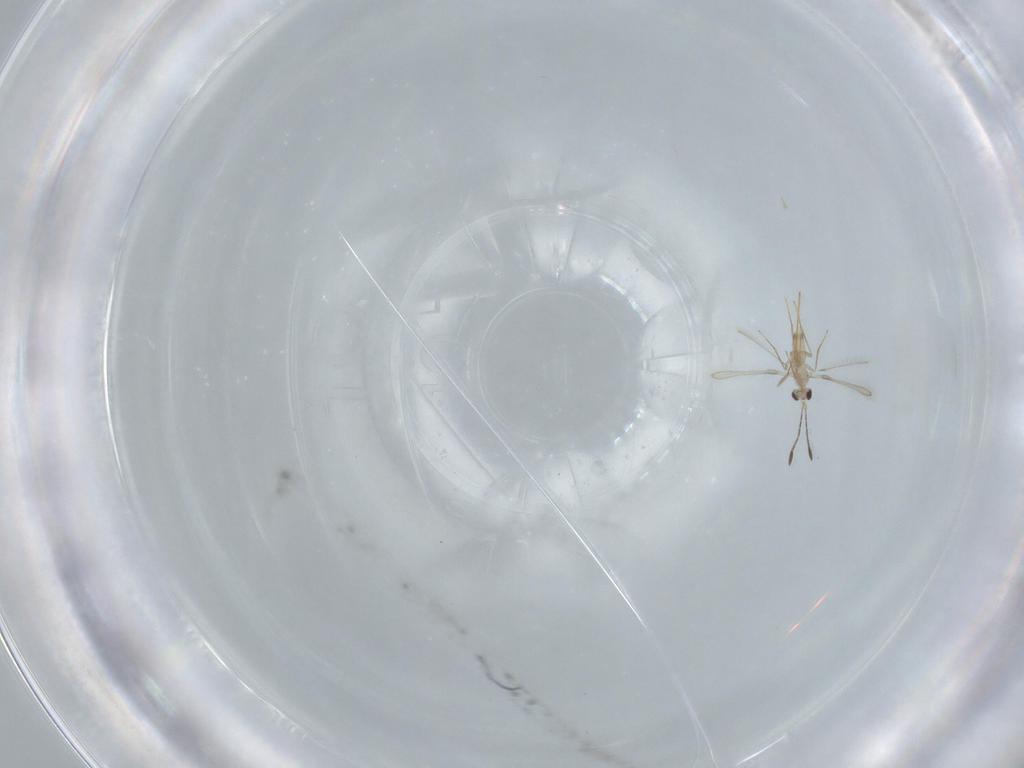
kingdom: Animalia
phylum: Arthropoda
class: Insecta
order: Hymenoptera
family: Mymaridae
